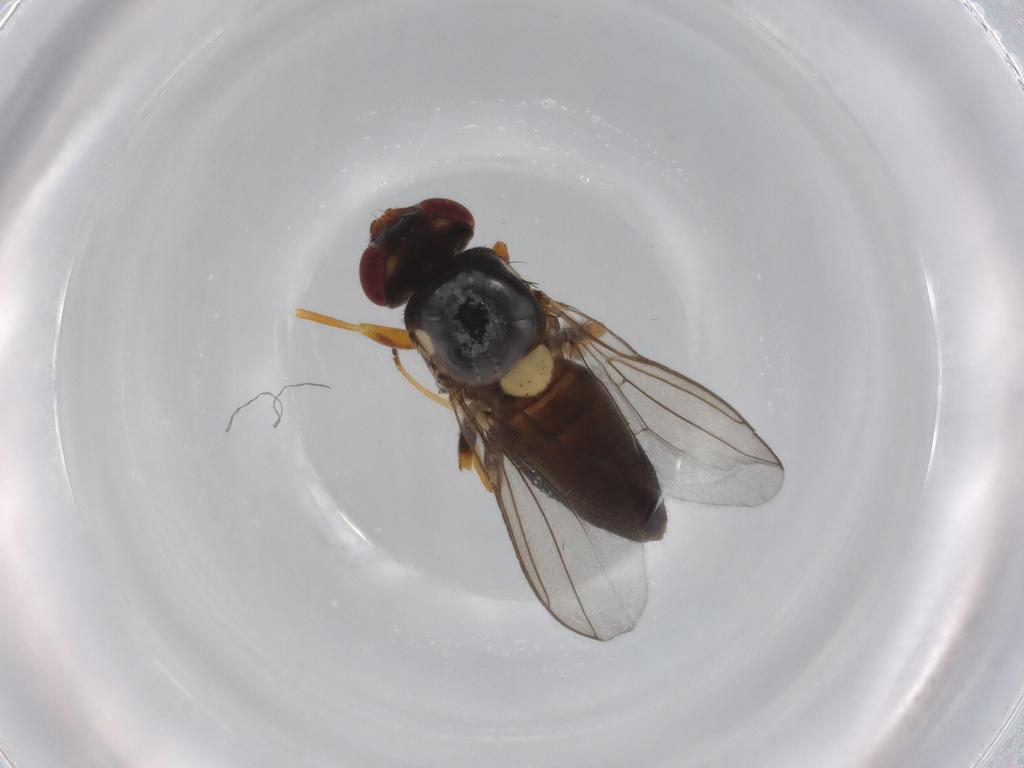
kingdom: Animalia
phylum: Arthropoda
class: Insecta
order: Diptera
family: Chloropidae
